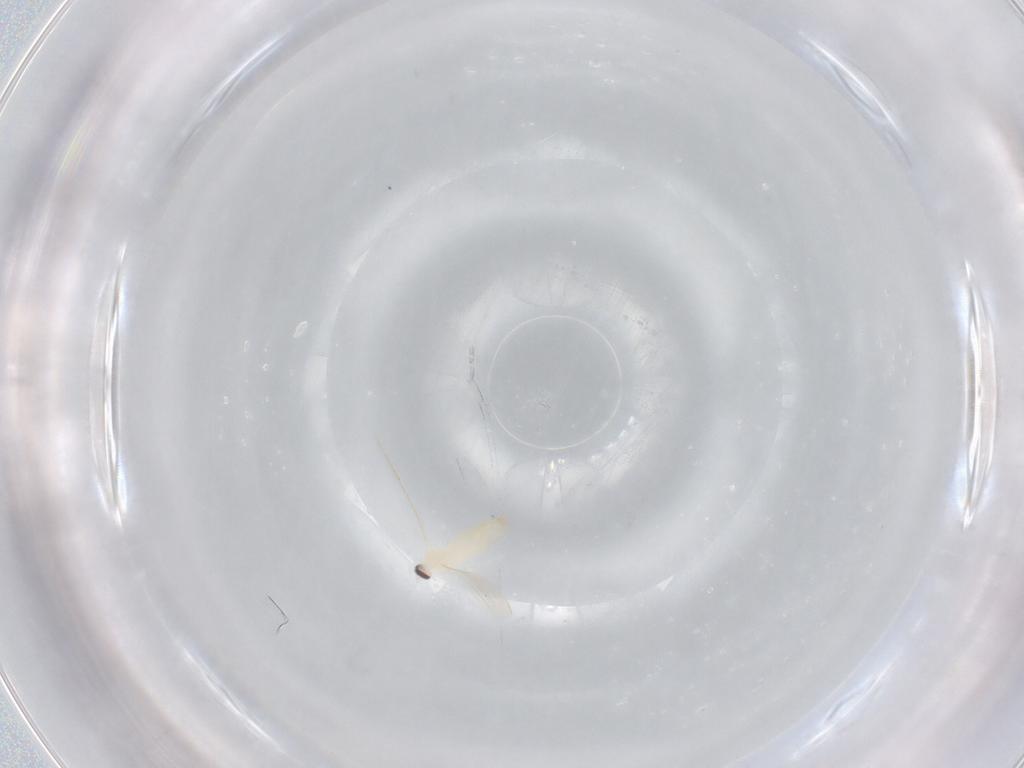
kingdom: Animalia
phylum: Arthropoda
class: Insecta
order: Diptera
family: Cecidomyiidae
